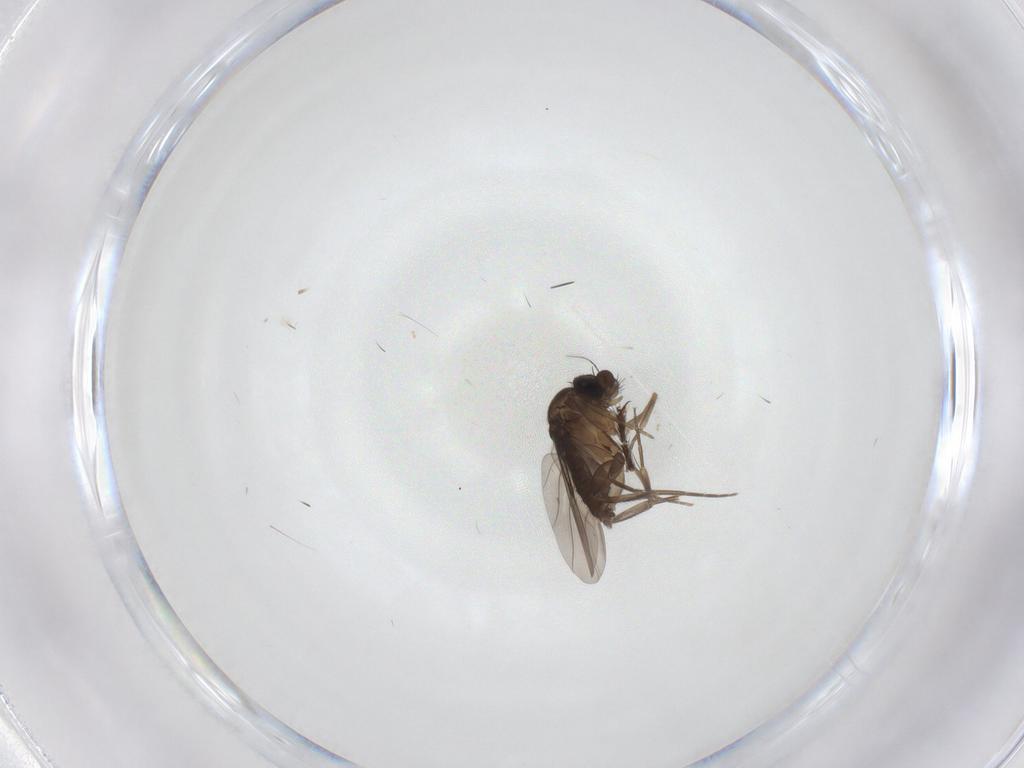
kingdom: Animalia
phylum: Arthropoda
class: Insecta
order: Diptera
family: Phoridae
